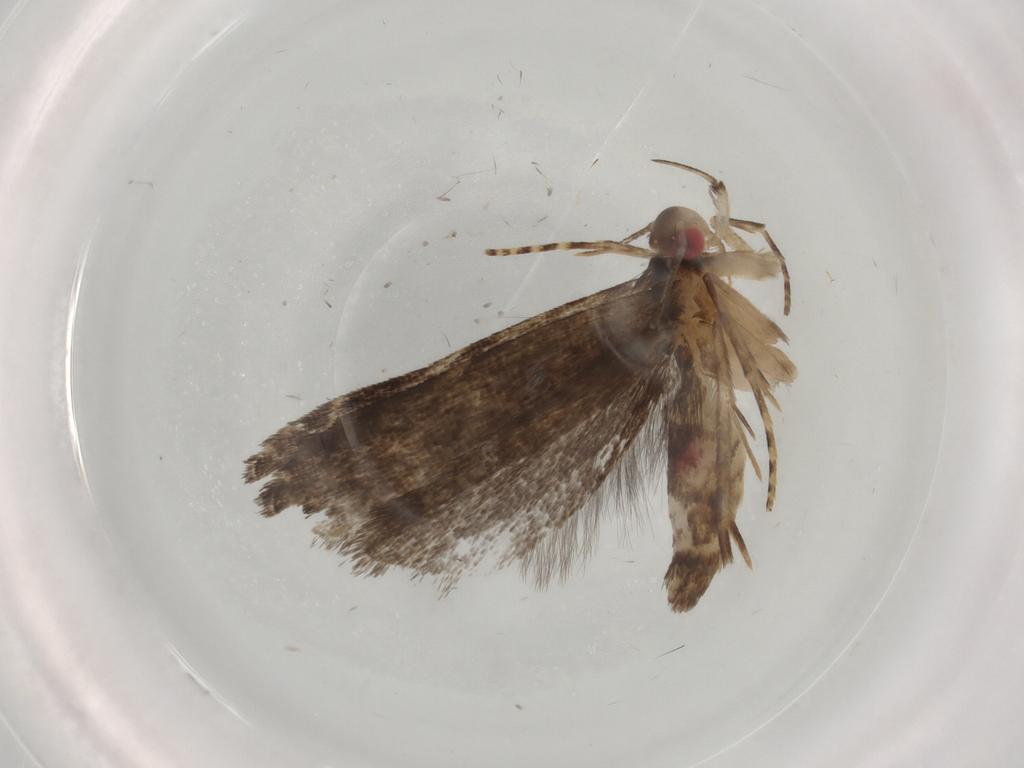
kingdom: Animalia
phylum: Arthropoda
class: Insecta
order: Lepidoptera
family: Gelechiidae
